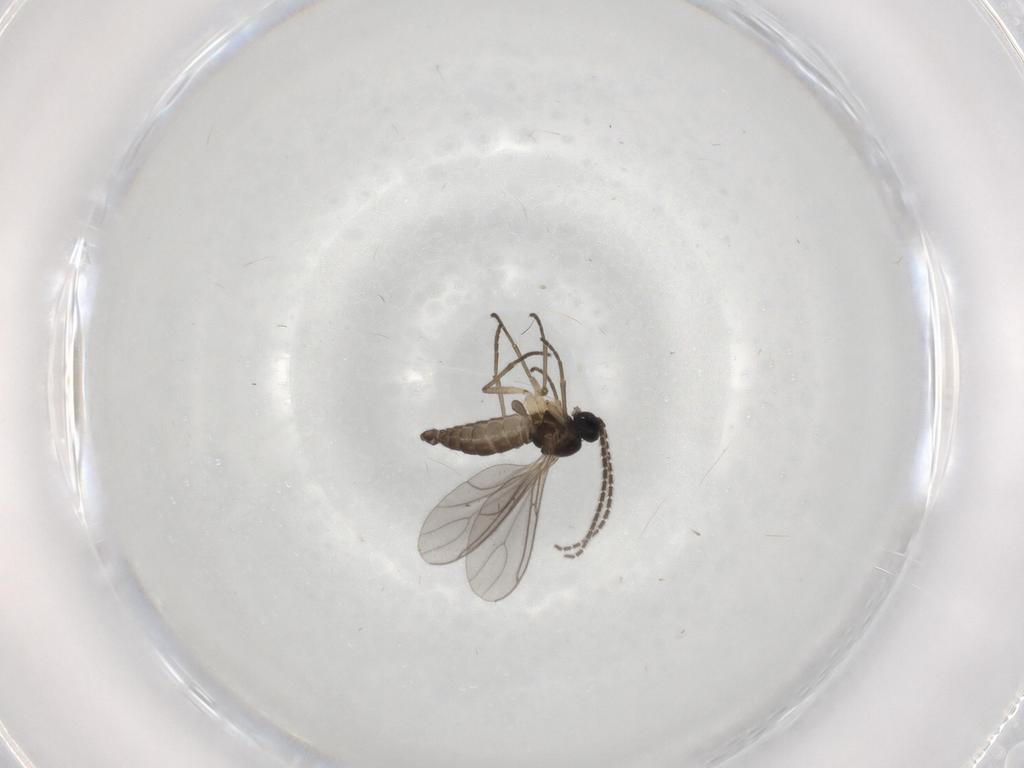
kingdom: Animalia
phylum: Arthropoda
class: Insecta
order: Diptera
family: Sciaridae
